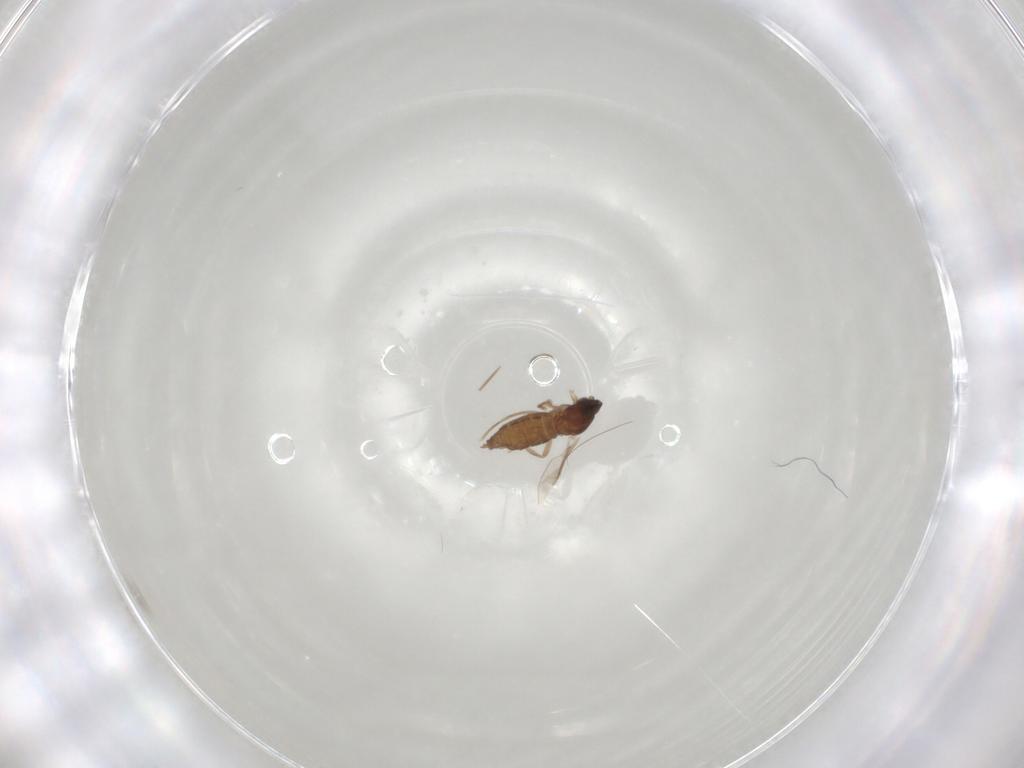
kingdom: Animalia
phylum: Arthropoda
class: Insecta
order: Diptera
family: Cecidomyiidae
